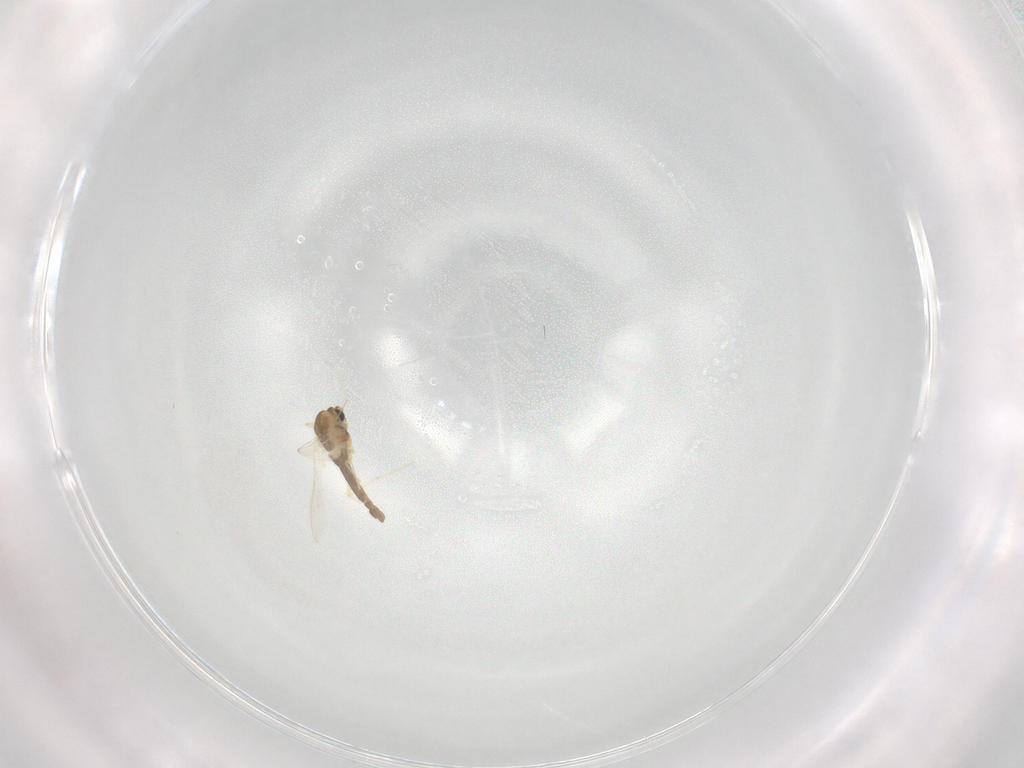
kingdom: Animalia
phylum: Arthropoda
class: Insecta
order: Diptera
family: Chironomidae
